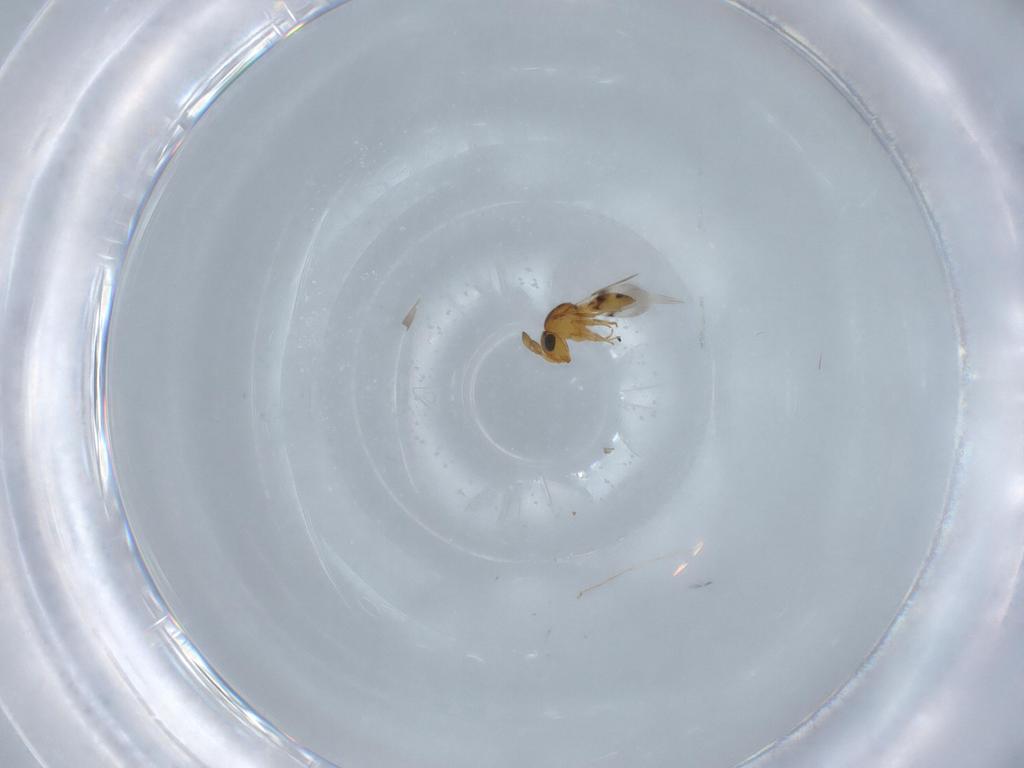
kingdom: Animalia
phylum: Arthropoda
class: Insecta
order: Hymenoptera
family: Scelionidae
